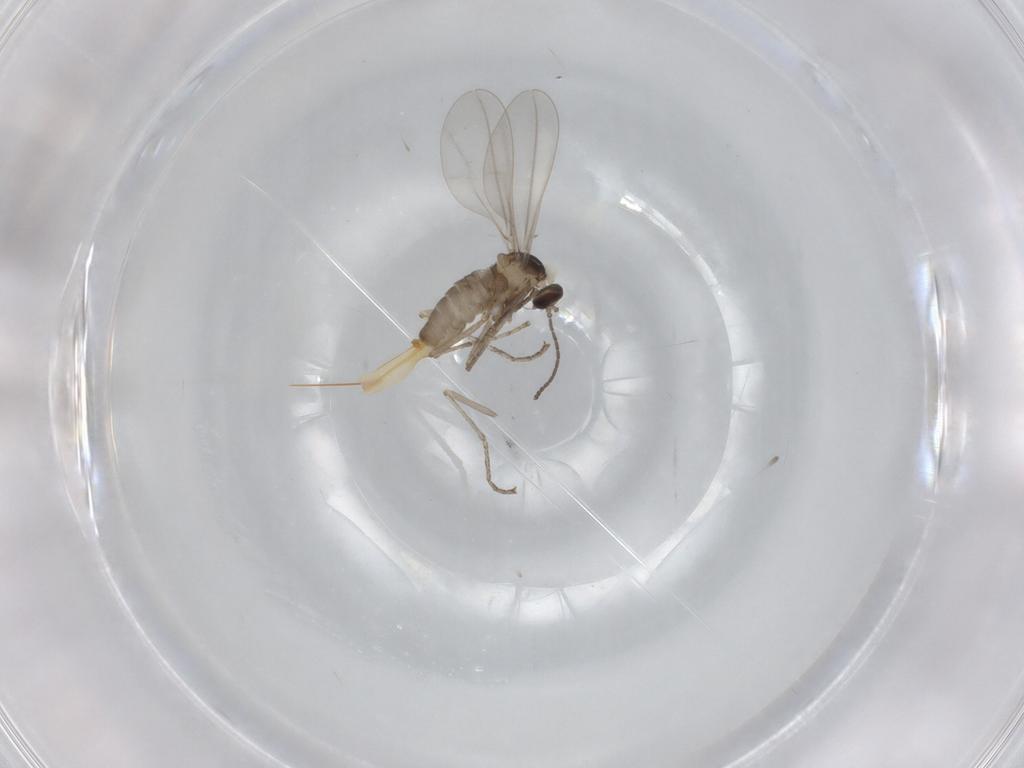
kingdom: Animalia
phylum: Arthropoda
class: Insecta
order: Diptera
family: Cecidomyiidae
